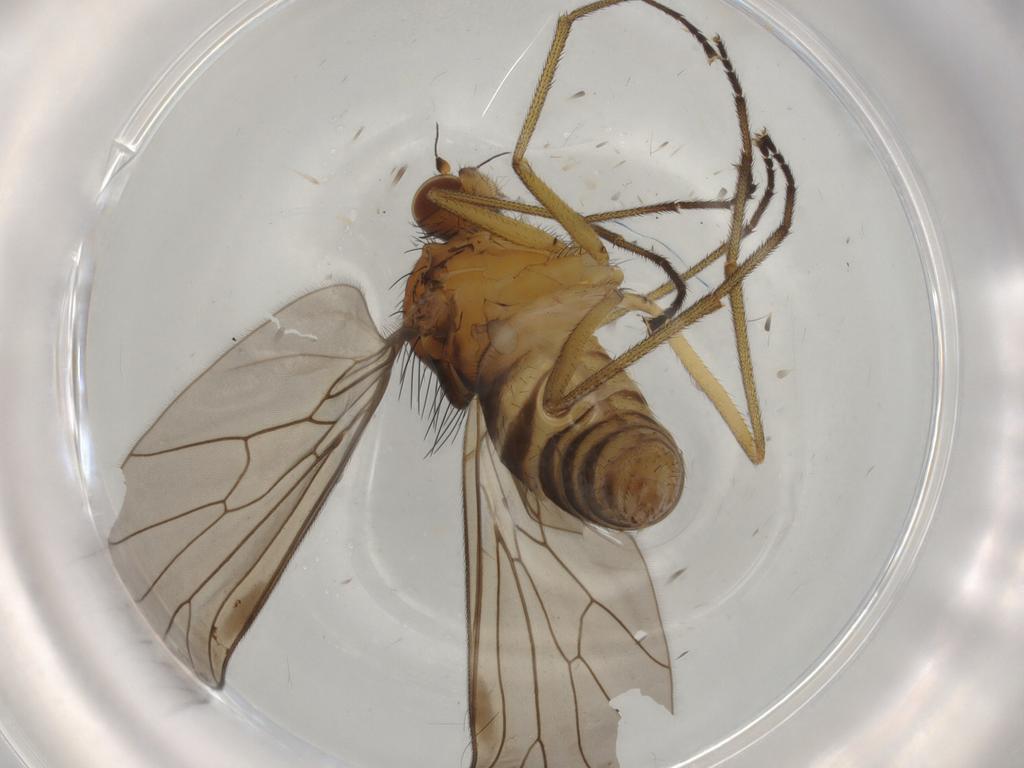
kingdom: Animalia
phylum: Arthropoda
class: Insecta
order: Diptera
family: Brachystomatidae
